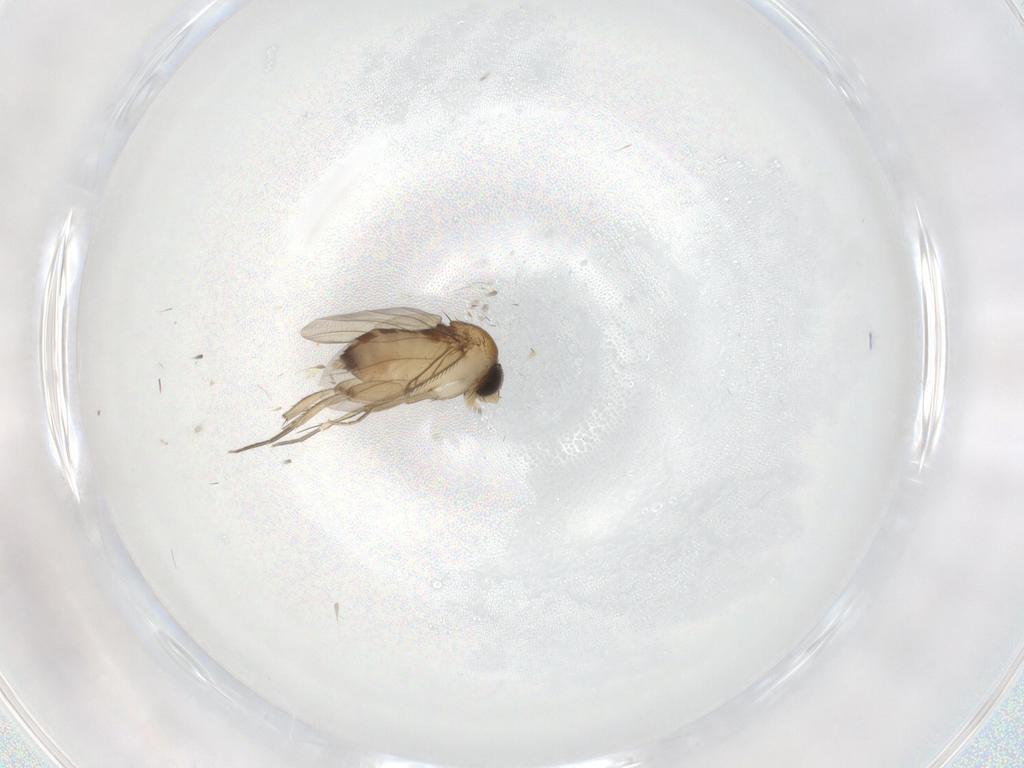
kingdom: Animalia
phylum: Arthropoda
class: Insecta
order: Diptera
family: Phoridae
